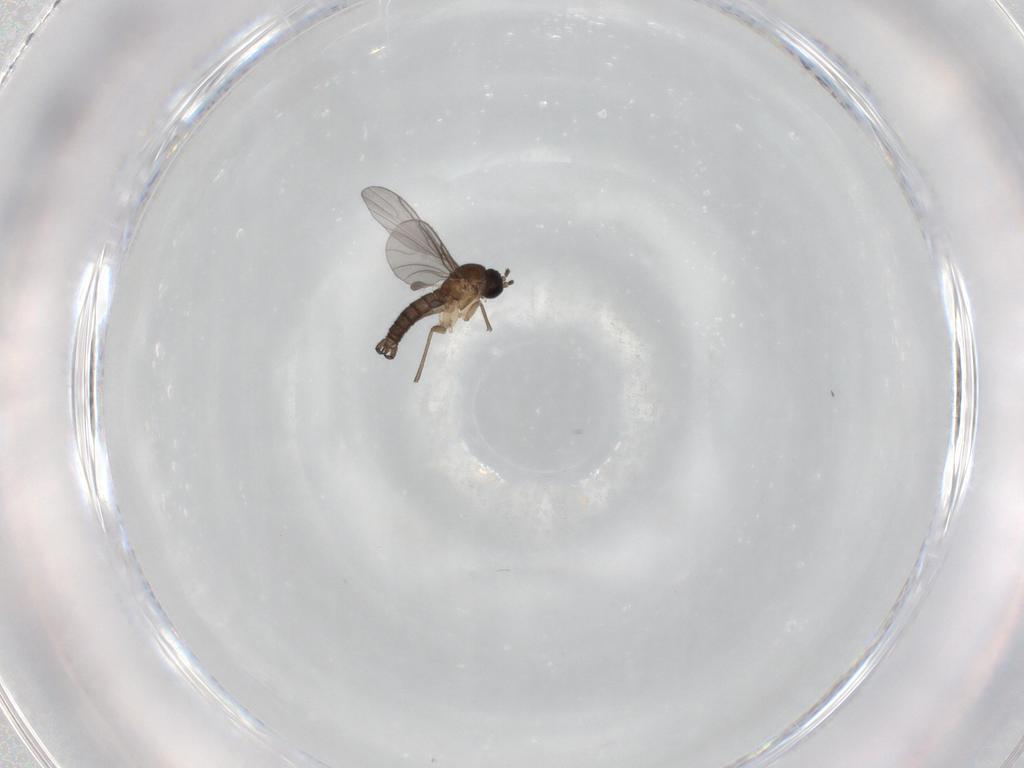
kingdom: Animalia
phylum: Arthropoda
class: Insecta
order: Diptera
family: Sciaridae
